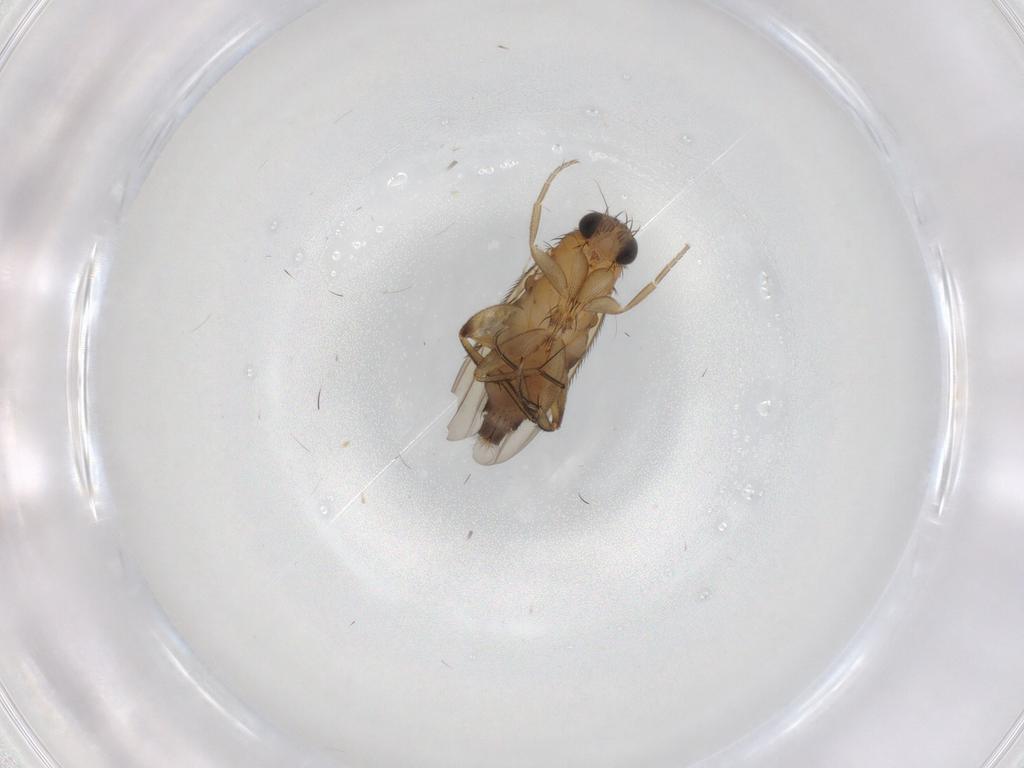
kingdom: Animalia
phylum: Arthropoda
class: Insecta
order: Diptera
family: Phoridae
